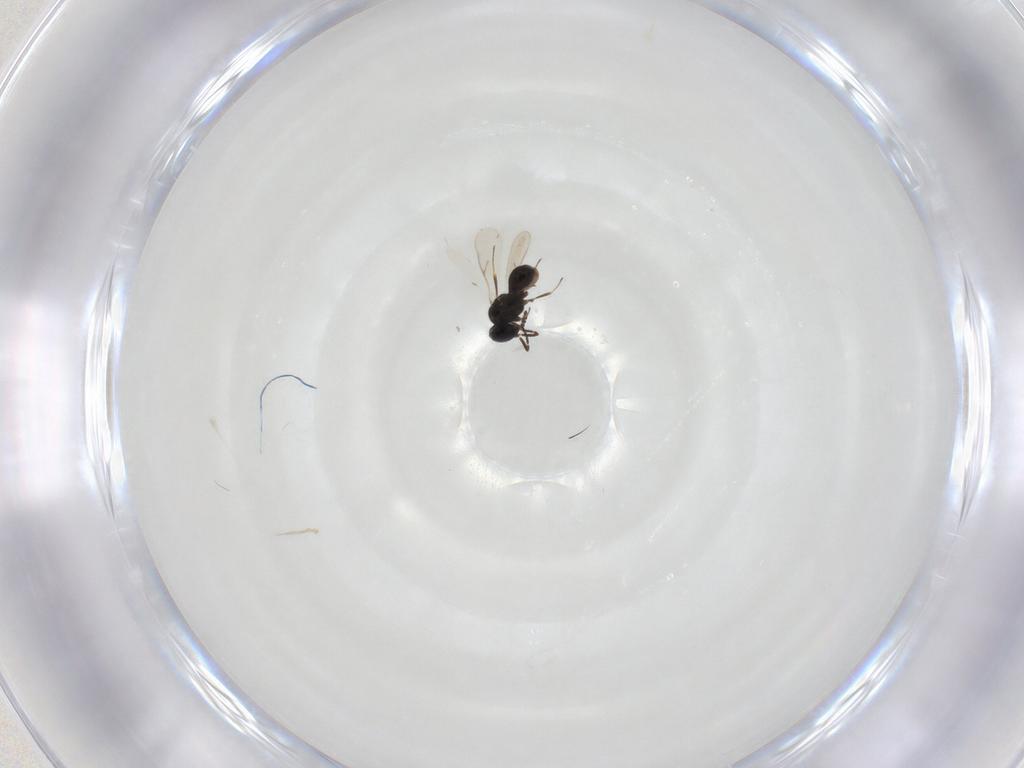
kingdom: Animalia
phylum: Arthropoda
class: Insecta
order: Hymenoptera
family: Scelionidae
